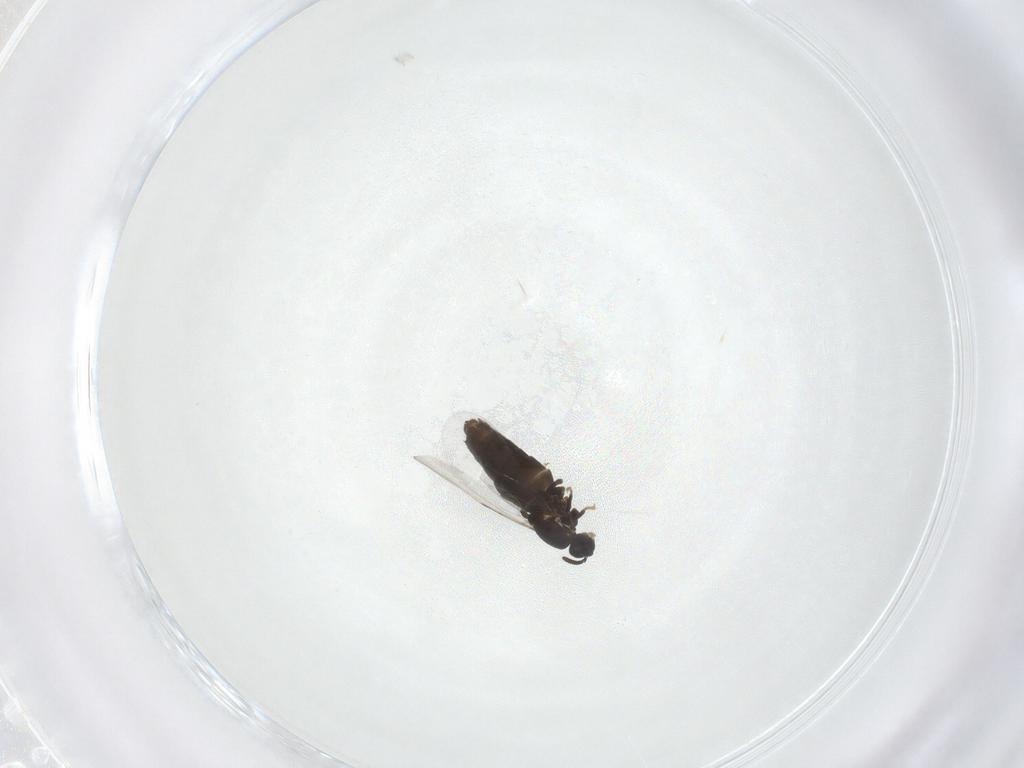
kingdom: Animalia
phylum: Arthropoda
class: Insecta
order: Diptera
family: Scatopsidae
